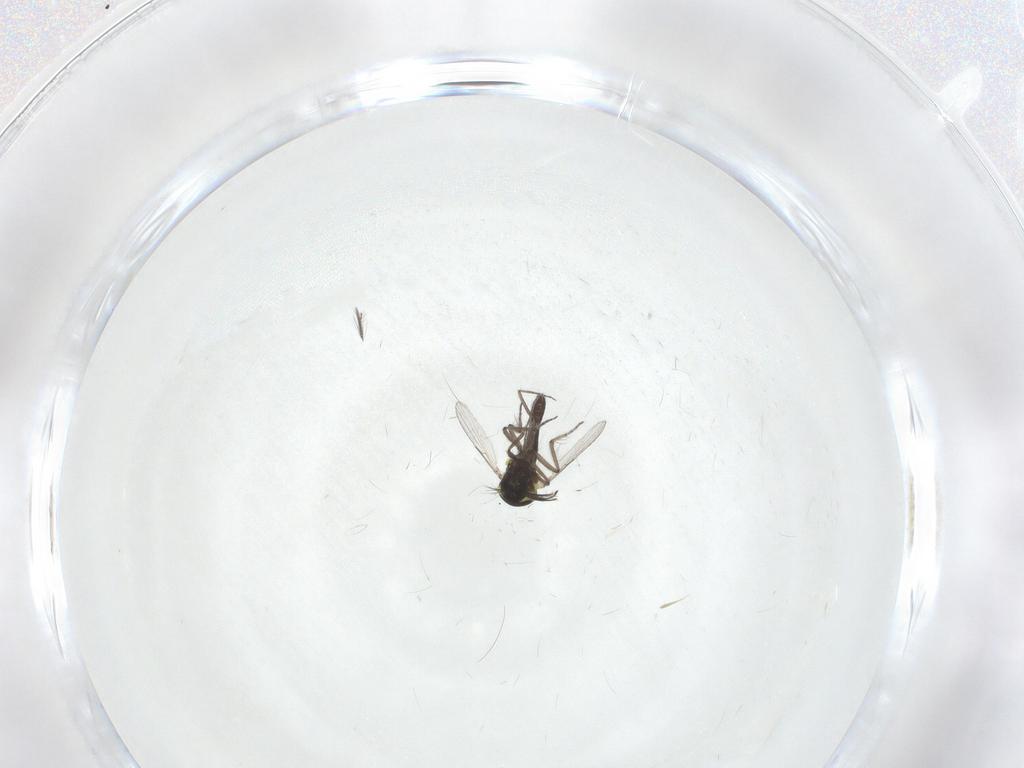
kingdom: Animalia
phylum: Arthropoda
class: Insecta
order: Diptera
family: Ceratopogonidae
